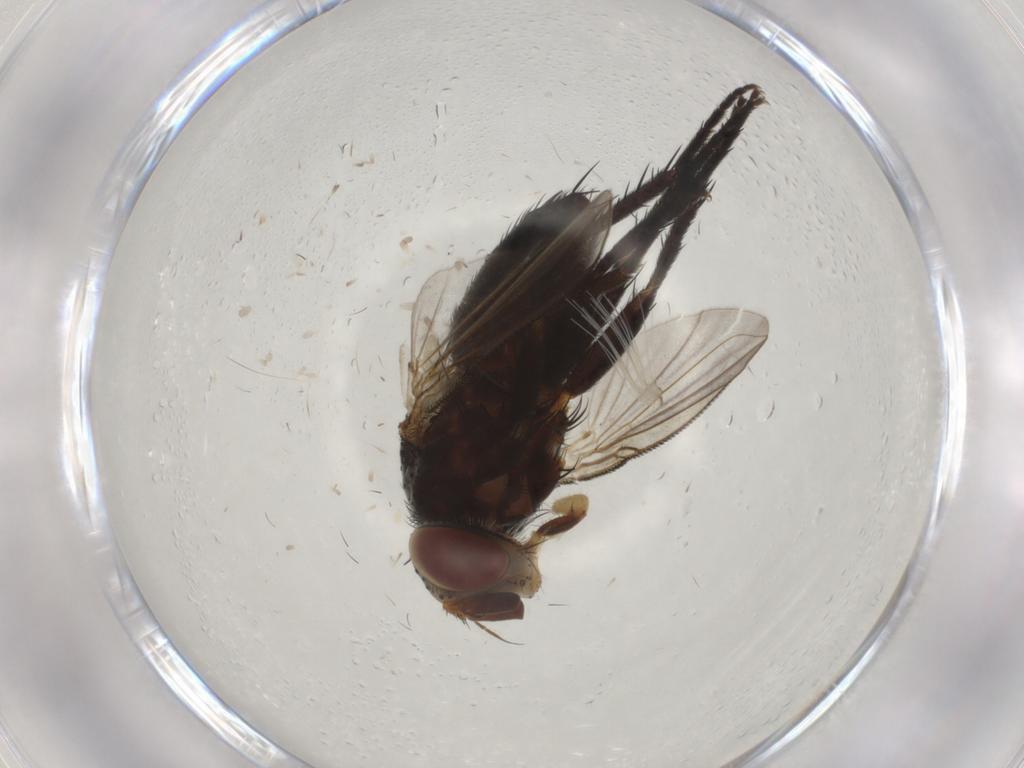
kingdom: Animalia
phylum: Arthropoda
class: Insecta
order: Diptera
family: Tachinidae
